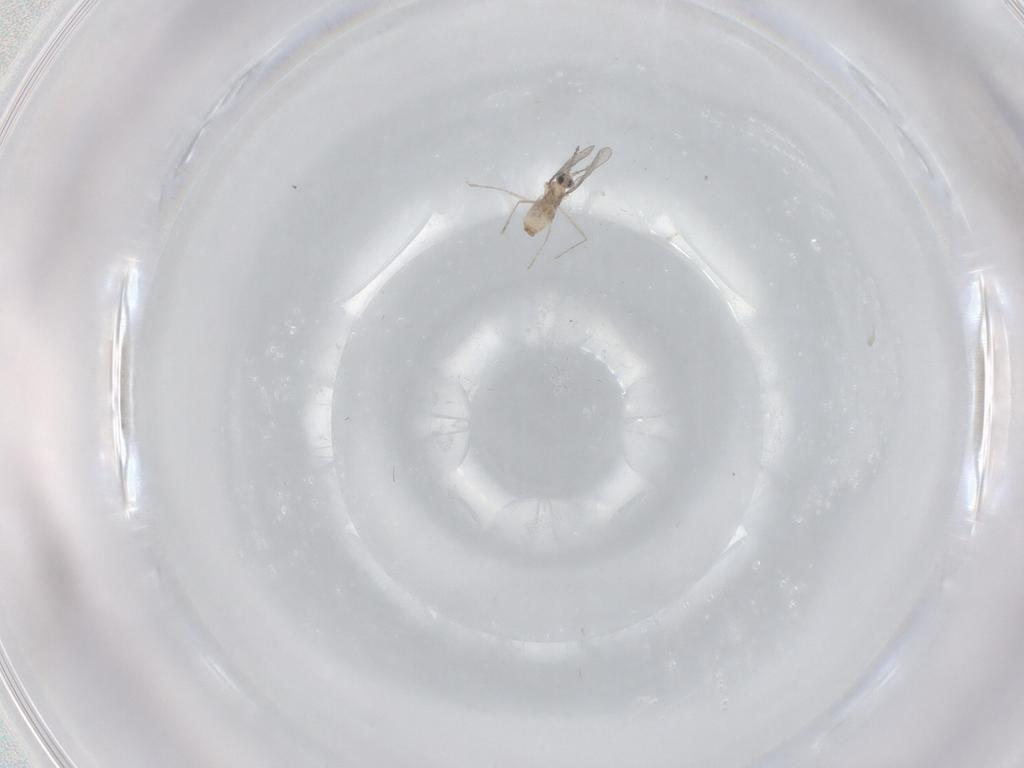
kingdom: Animalia
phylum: Arthropoda
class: Insecta
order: Diptera
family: Cecidomyiidae
